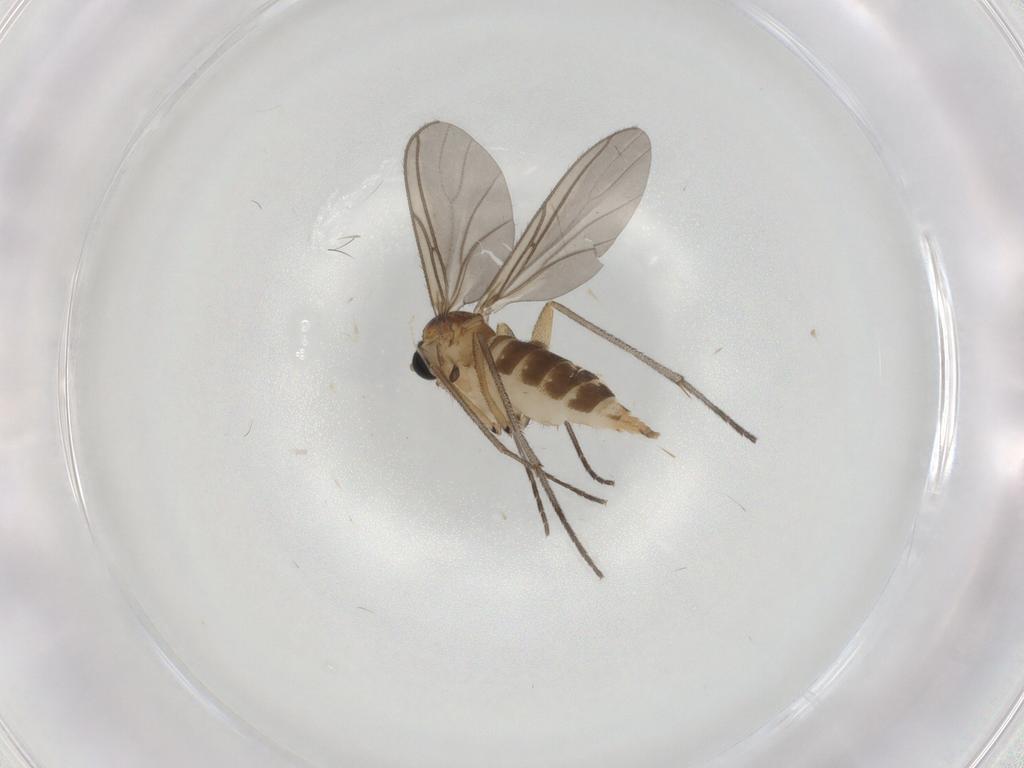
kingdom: Animalia
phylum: Arthropoda
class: Insecta
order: Diptera
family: Sciaridae
